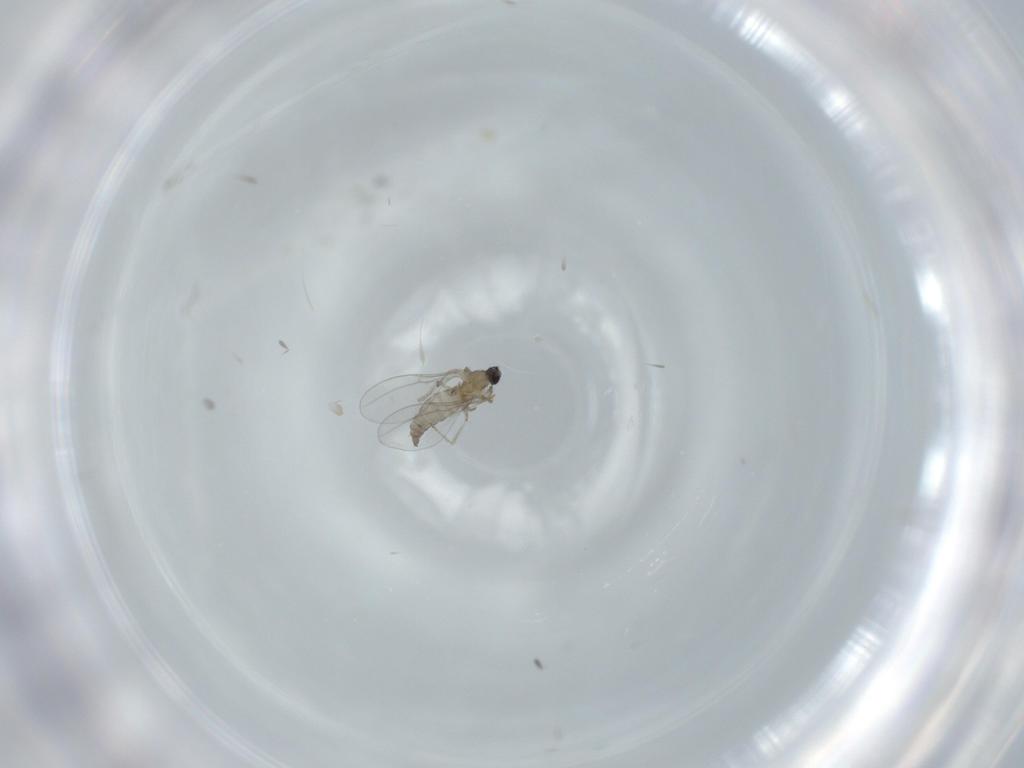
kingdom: Animalia
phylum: Arthropoda
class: Insecta
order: Diptera
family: Cecidomyiidae
